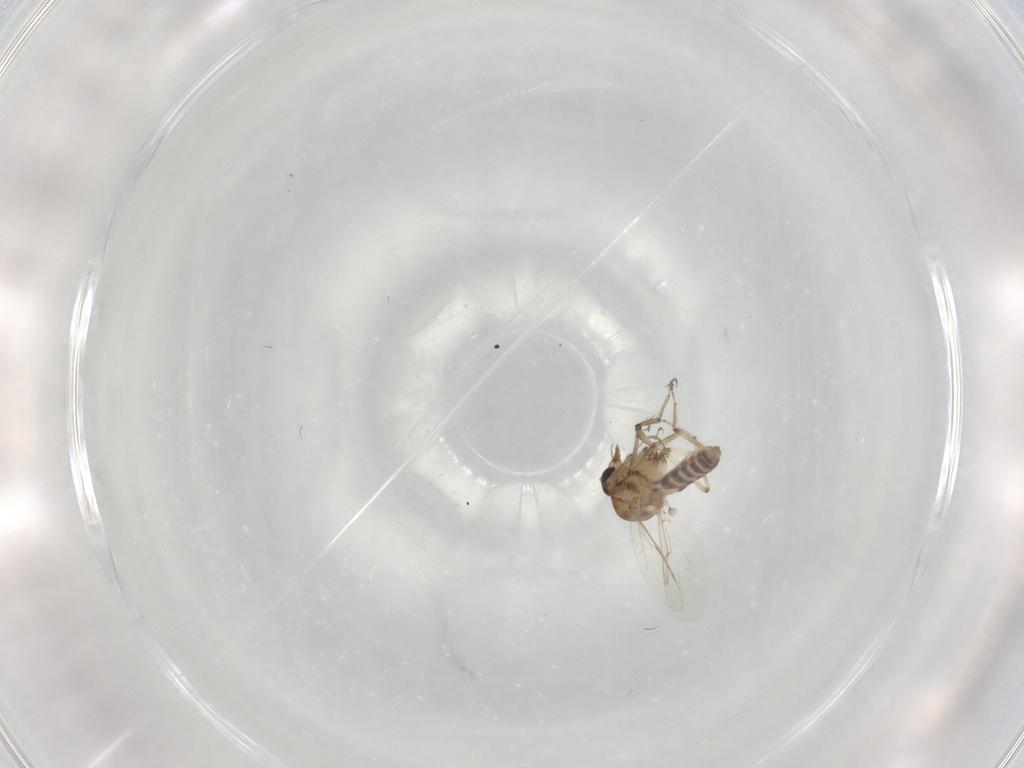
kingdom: Animalia
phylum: Arthropoda
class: Insecta
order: Diptera
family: Ceratopogonidae
